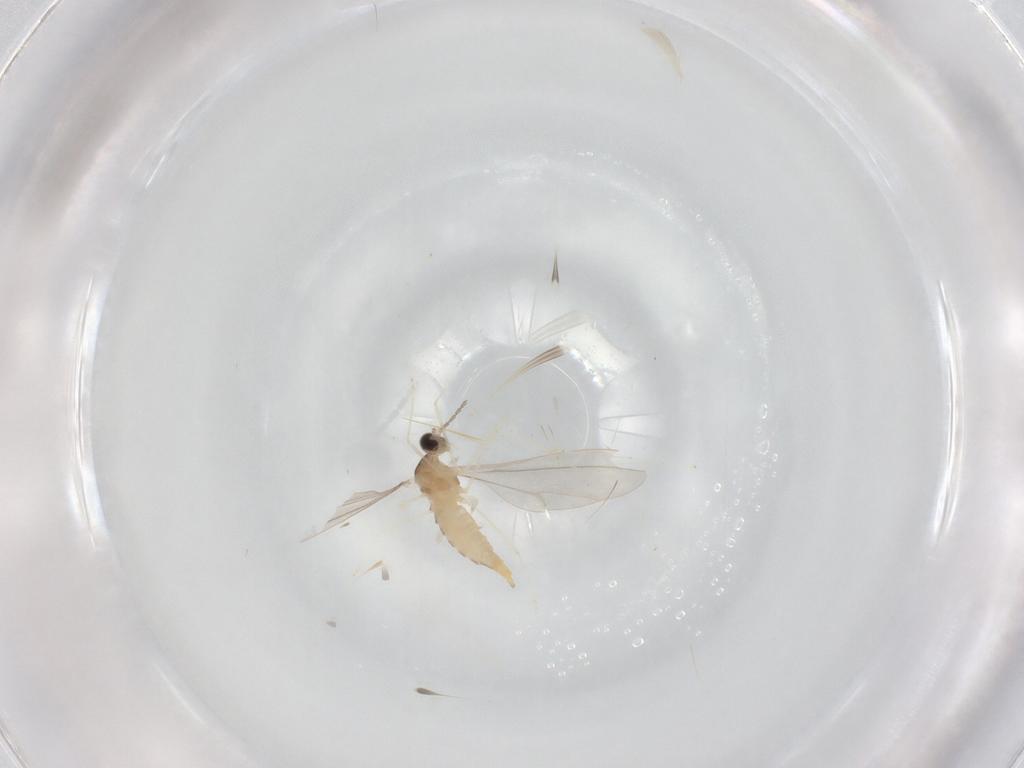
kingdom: Animalia
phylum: Arthropoda
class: Insecta
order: Diptera
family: Cecidomyiidae
